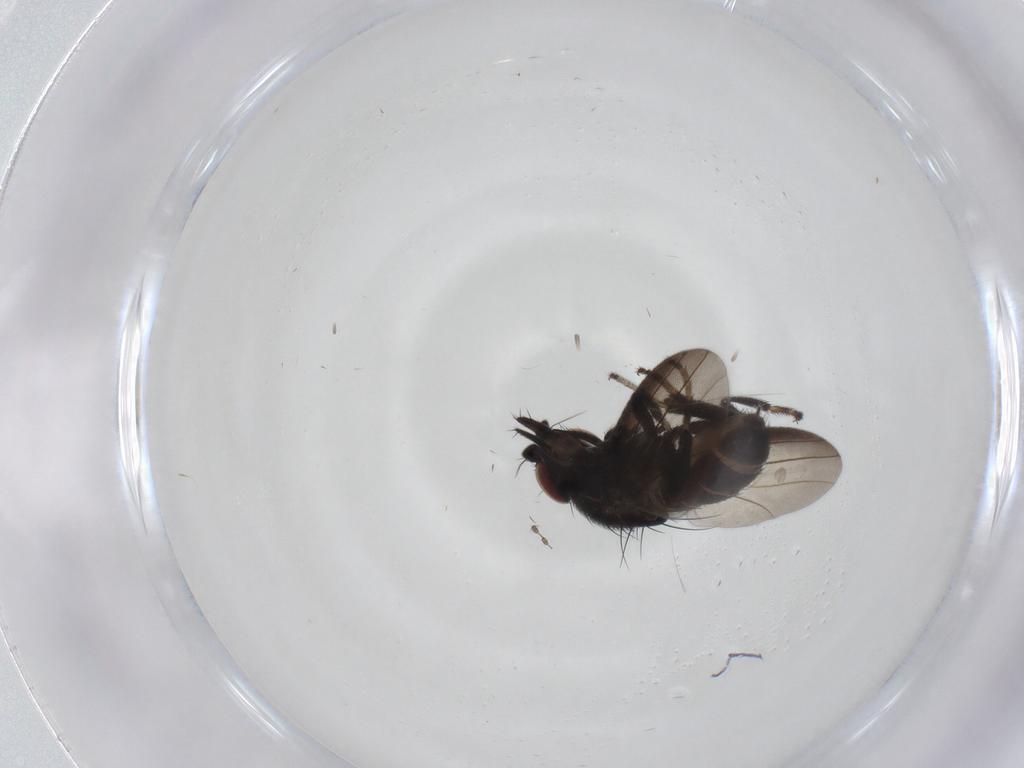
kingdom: Animalia
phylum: Arthropoda
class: Insecta
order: Diptera
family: Milichiidae
